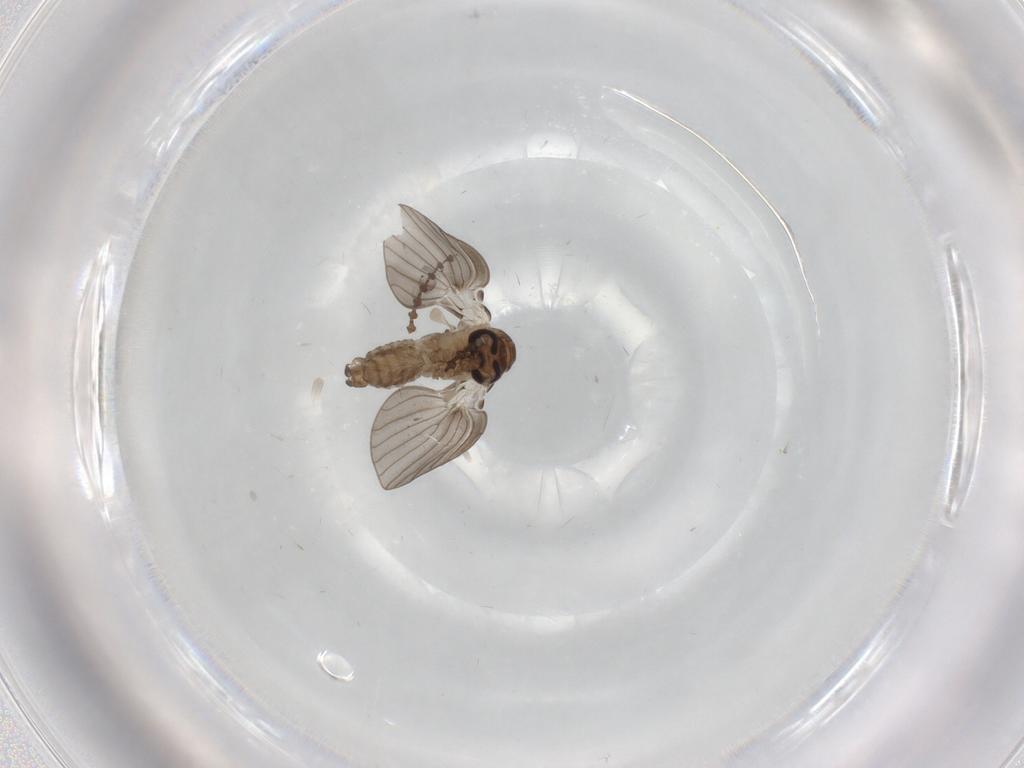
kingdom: Animalia
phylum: Arthropoda
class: Insecta
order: Diptera
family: Psychodidae
